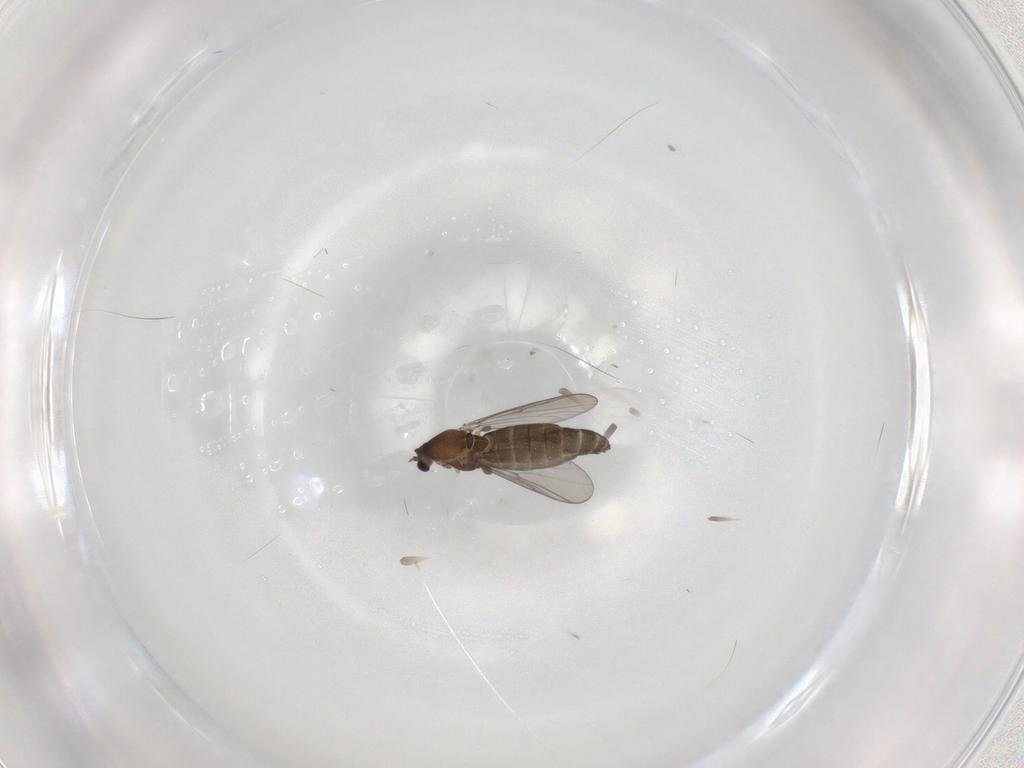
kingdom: Animalia
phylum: Arthropoda
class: Insecta
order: Diptera
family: Chironomidae
